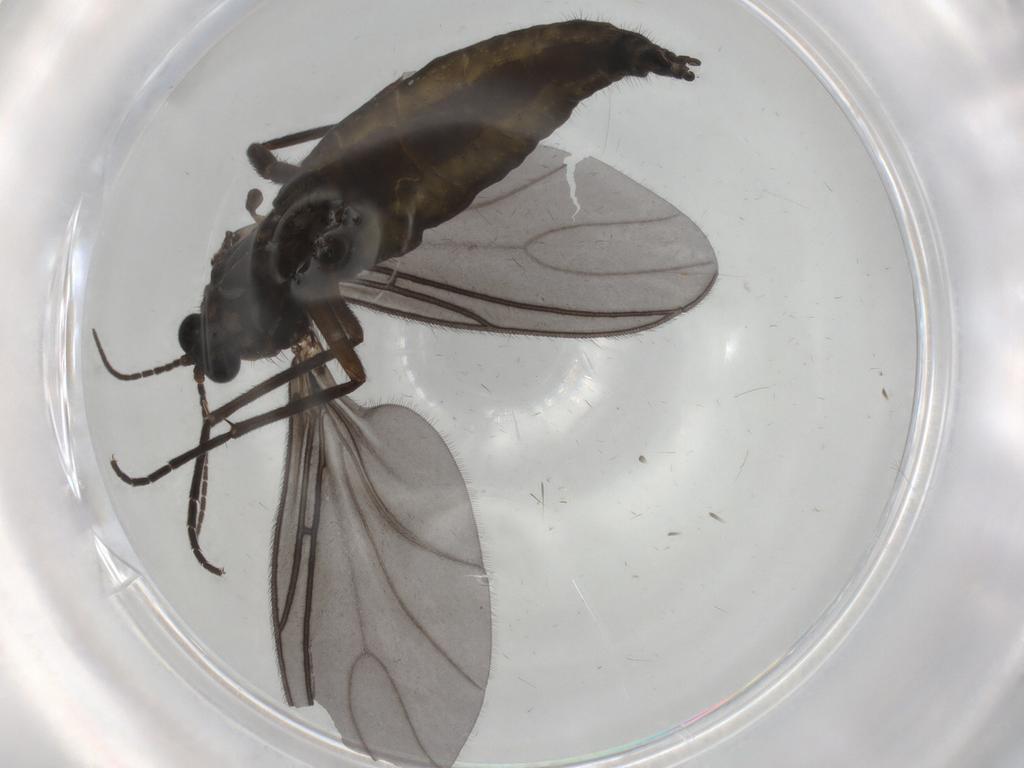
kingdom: Animalia
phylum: Arthropoda
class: Insecta
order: Diptera
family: Sciaridae
